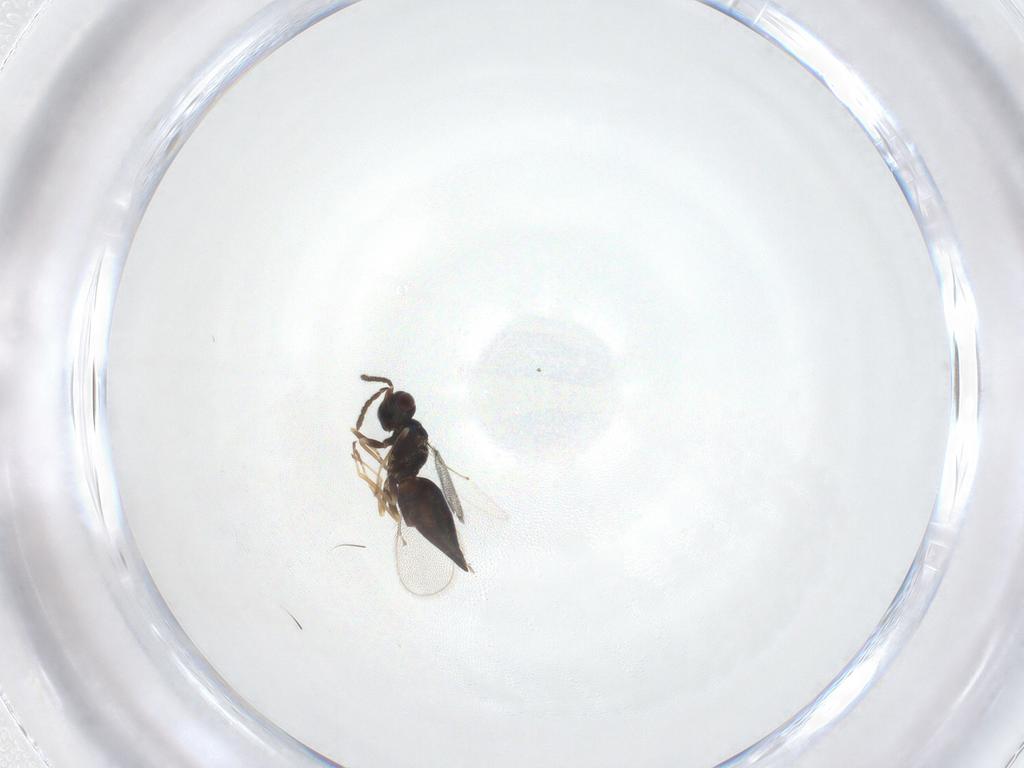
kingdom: Animalia
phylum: Arthropoda
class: Insecta
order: Hymenoptera
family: Eulophidae
